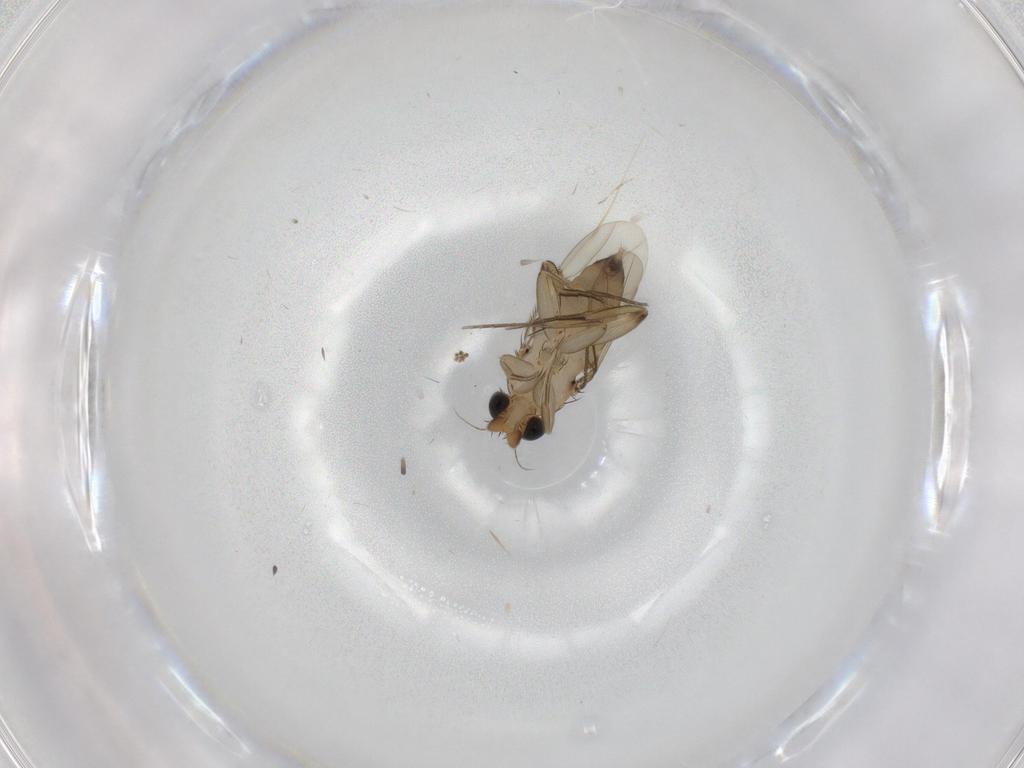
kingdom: Animalia
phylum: Arthropoda
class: Insecta
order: Diptera
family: Phoridae
